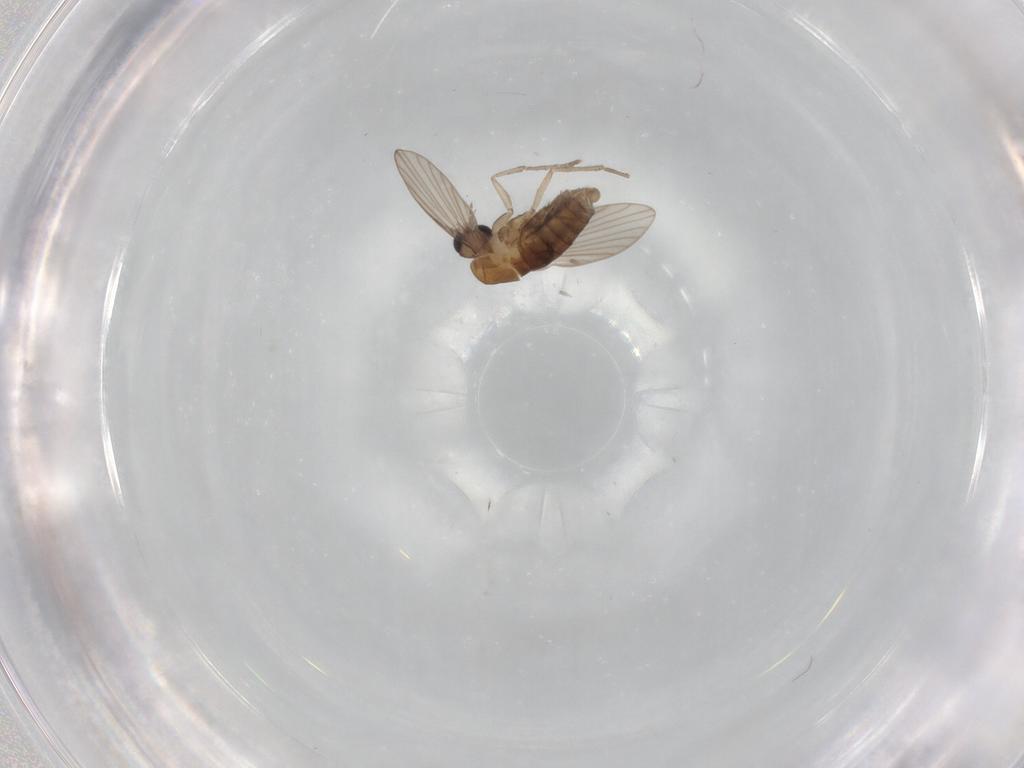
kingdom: Animalia
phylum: Arthropoda
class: Insecta
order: Diptera
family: Psychodidae
